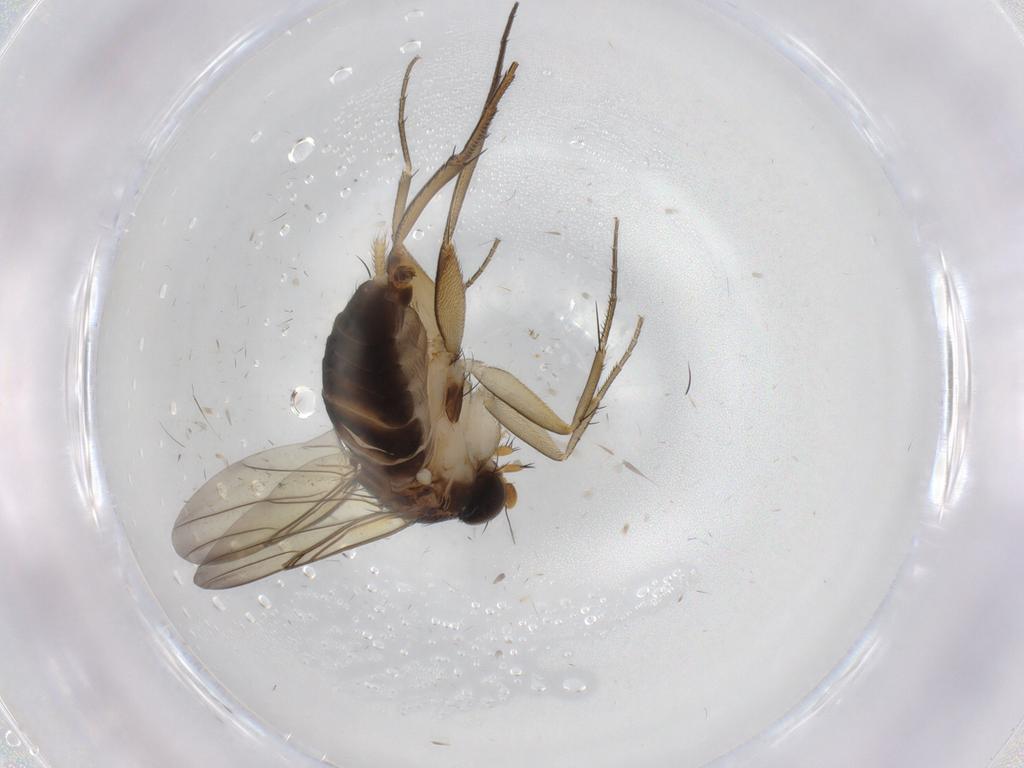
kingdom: Animalia
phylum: Arthropoda
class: Insecta
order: Diptera
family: Phoridae
